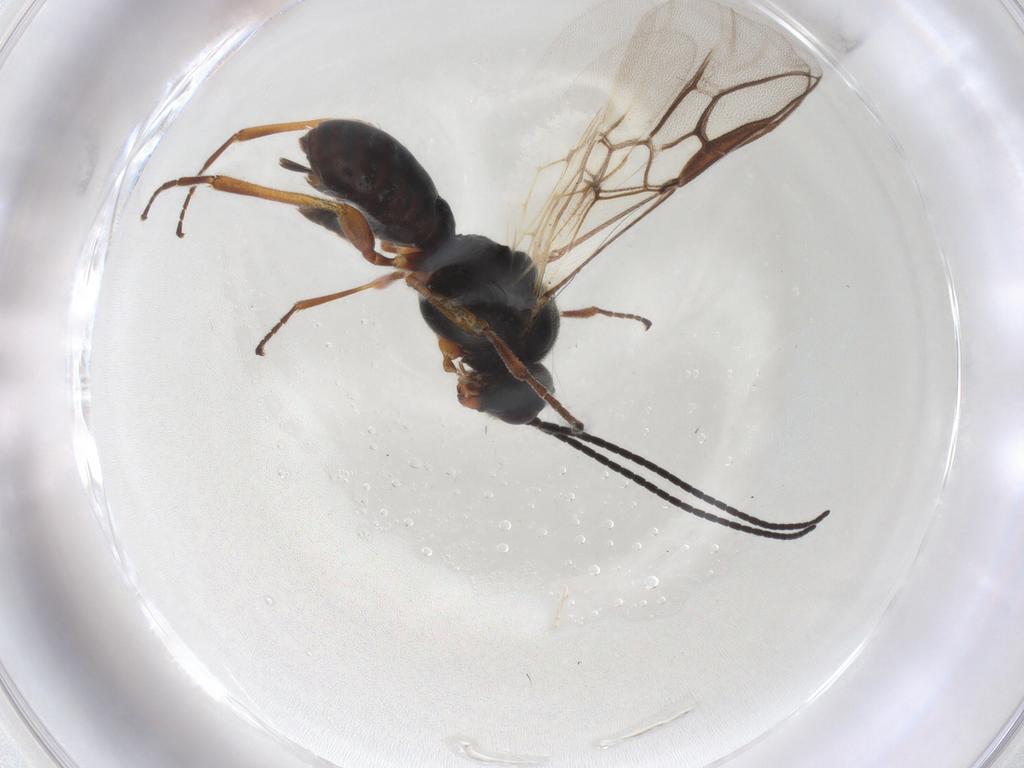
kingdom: Animalia
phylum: Arthropoda
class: Insecta
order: Hymenoptera
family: Braconidae
